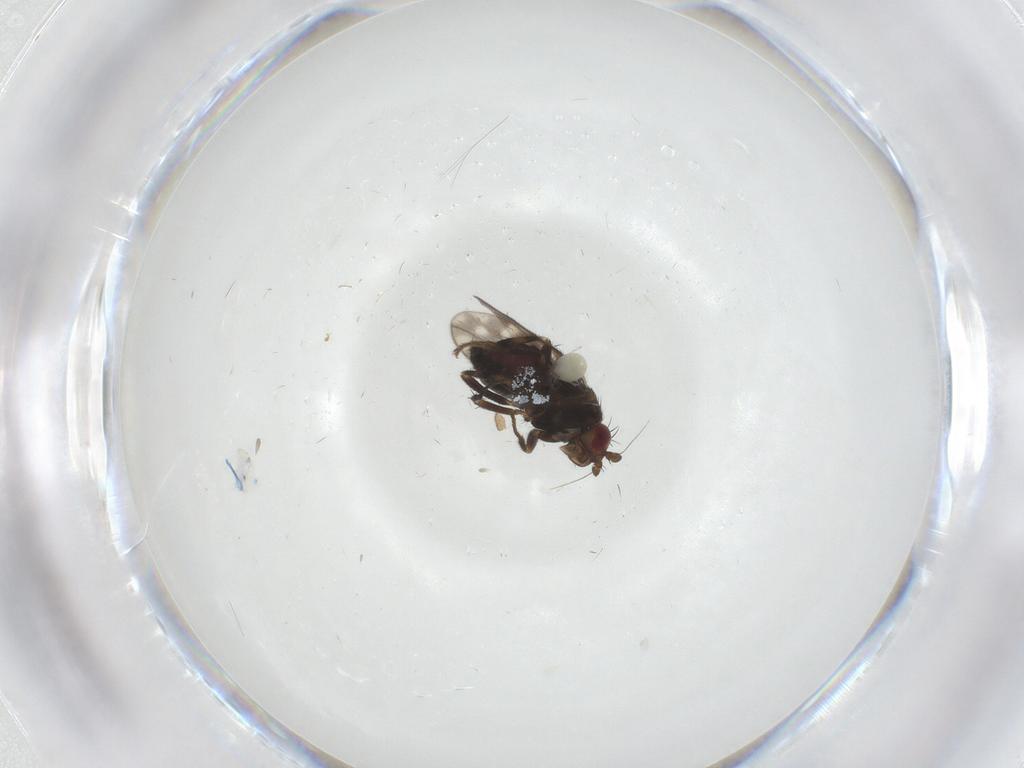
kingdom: Animalia
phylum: Arthropoda
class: Insecta
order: Diptera
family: Sphaeroceridae
